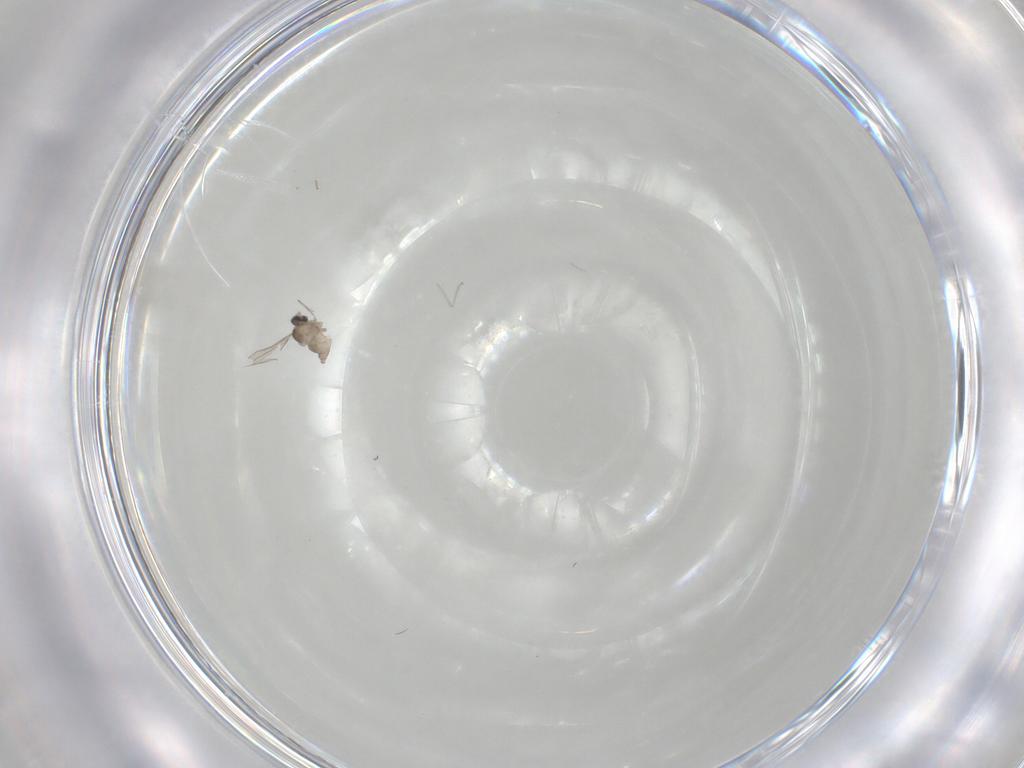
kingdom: Animalia
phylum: Arthropoda
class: Insecta
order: Diptera
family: Cecidomyiidae
